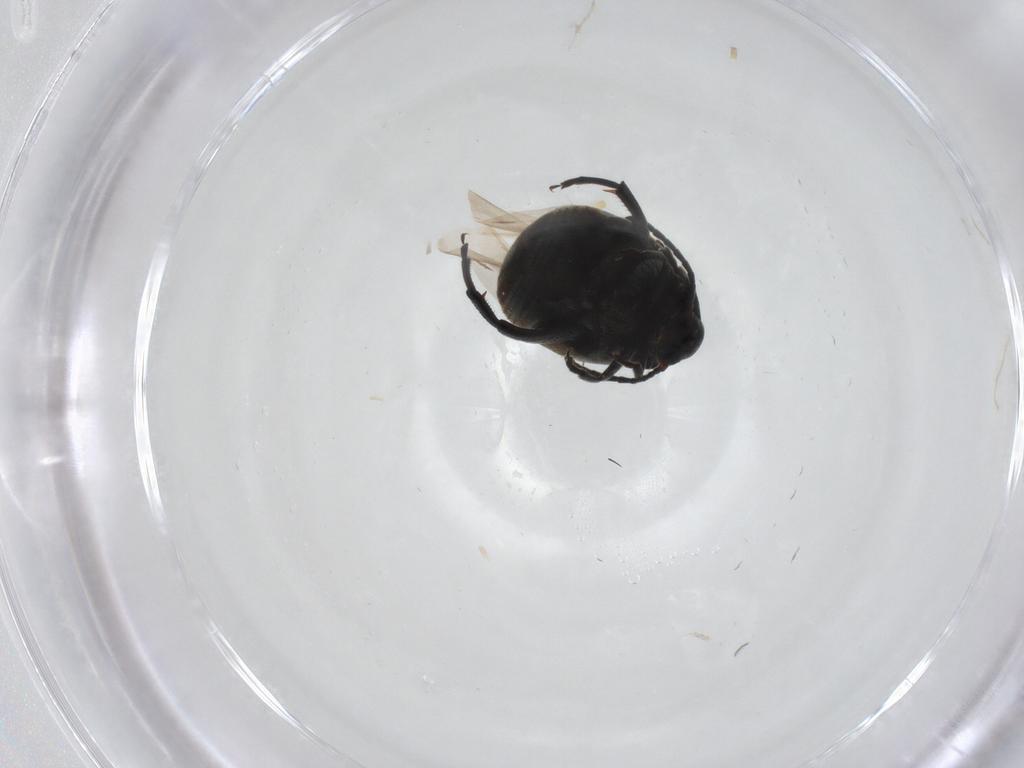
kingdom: Animalia
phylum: Arthropoda
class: Insecta
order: Coleoptera
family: Chrysomelidae
